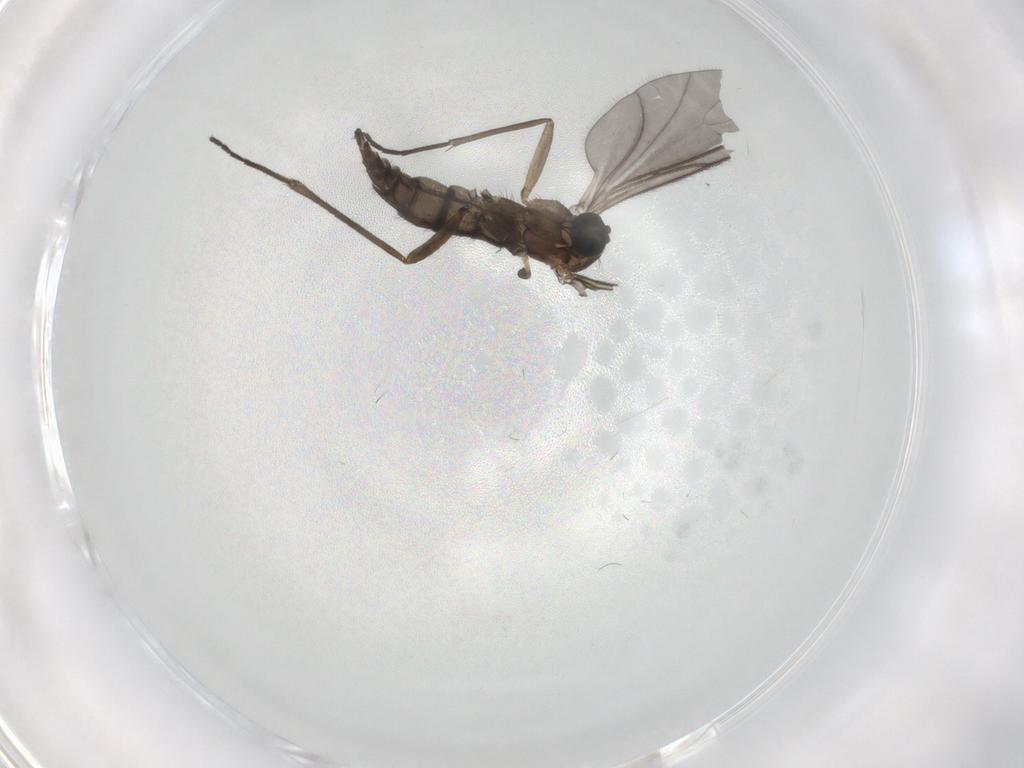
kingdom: Animalia
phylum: Arthropoda
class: Insecta
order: Diptera
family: Sciaridae
